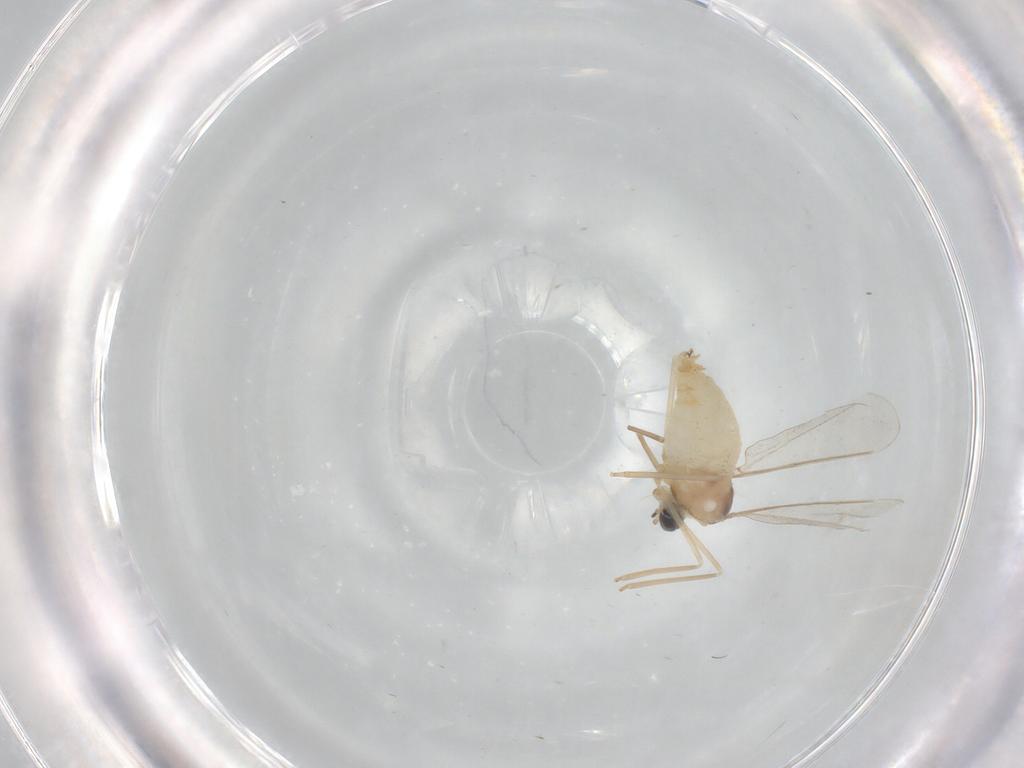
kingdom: Animalia
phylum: Arthropoda
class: Insecta
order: Diptera
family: Cecidomyiidae
